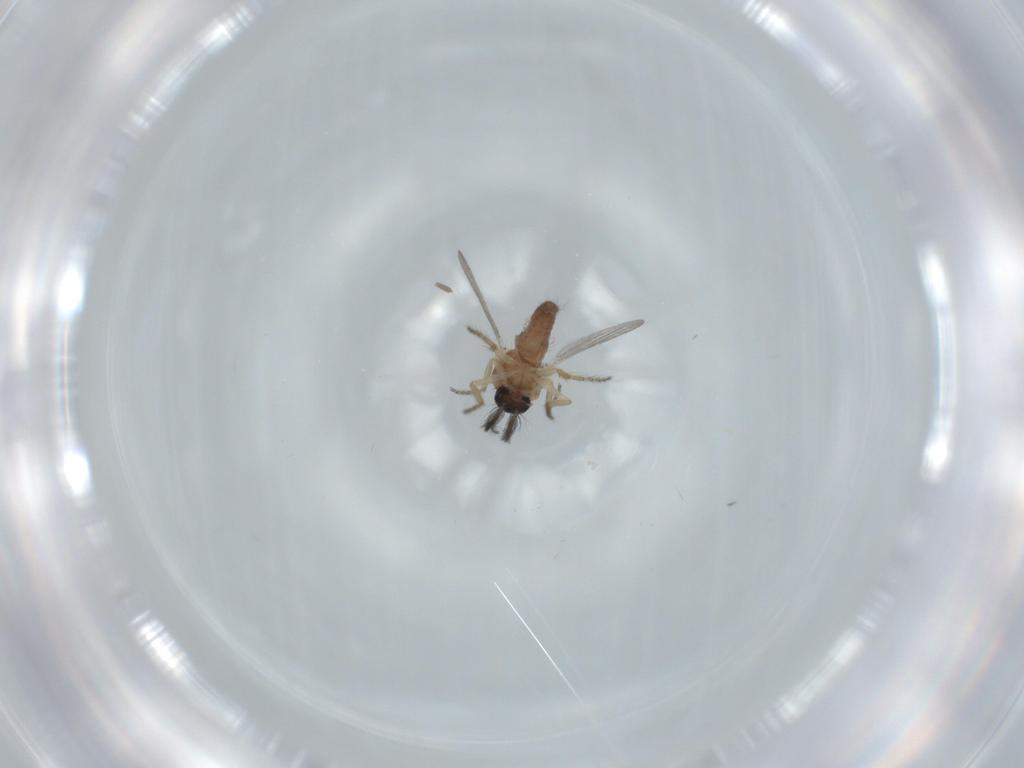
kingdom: Animalia
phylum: Arthropoda
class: Insecta
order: Diptera
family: Ceratopogonidae
